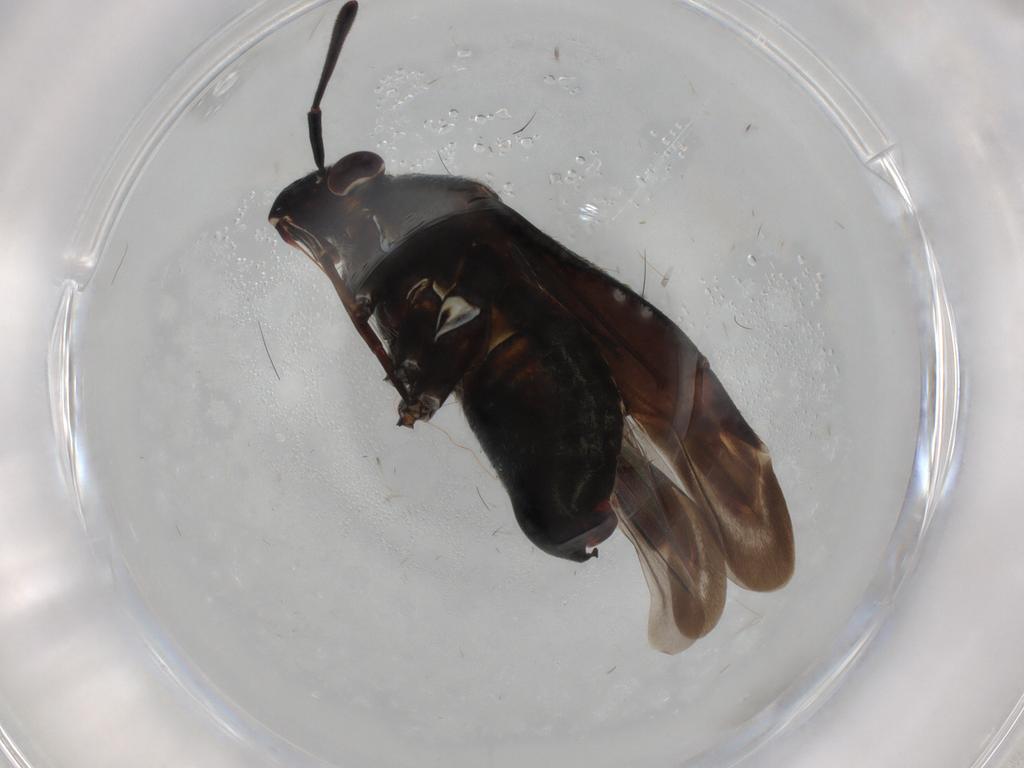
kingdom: Animalia
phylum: Arthropoda
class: Insecta
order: Hemiptera
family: Miridae
